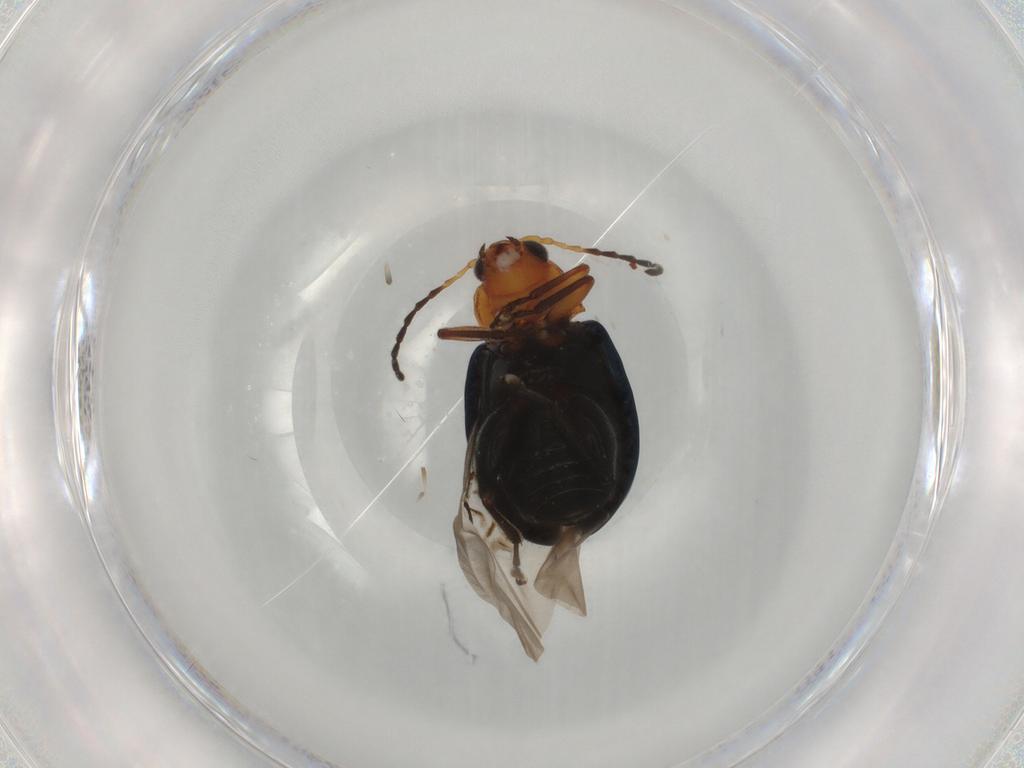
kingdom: Animalia
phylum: Arthropoda
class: Insecta
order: Coleoptera
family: Chrysomelidae
